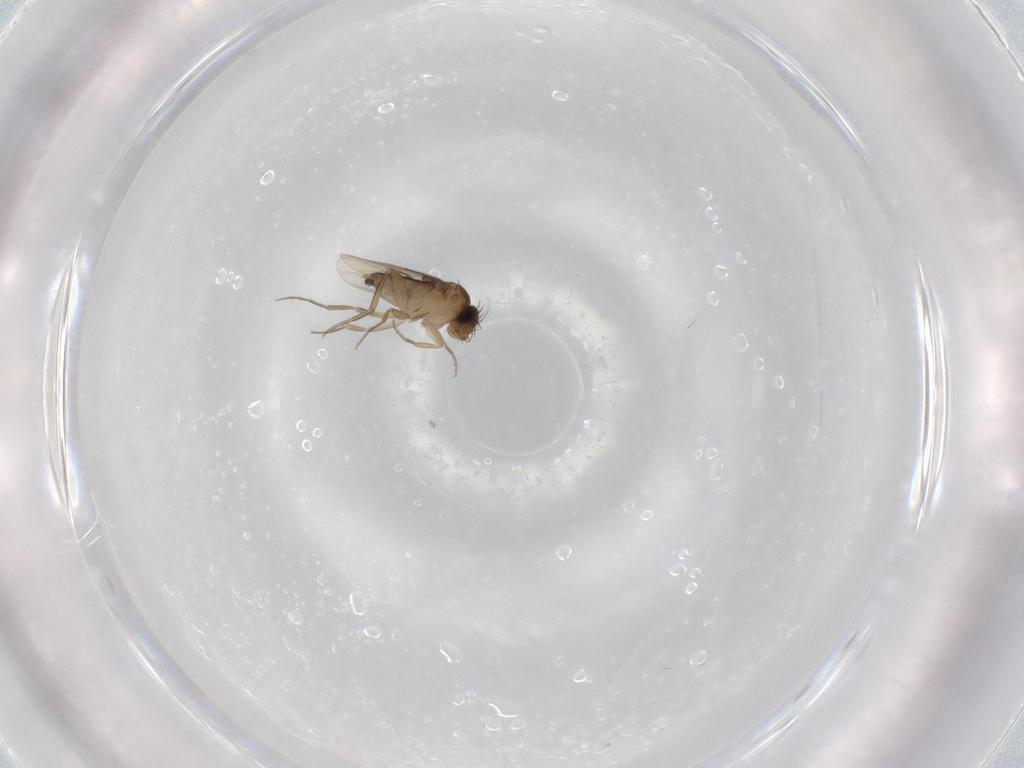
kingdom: Animalia
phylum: Arthropoda
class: Insecta
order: Diptera
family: Phoridae
